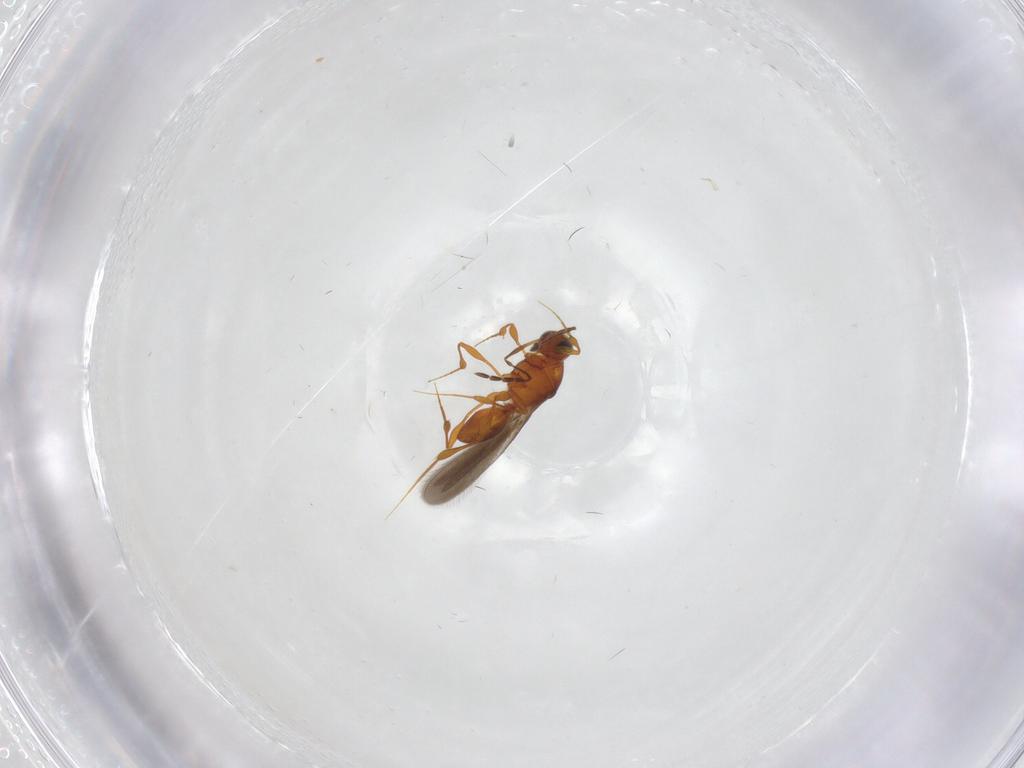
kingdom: Animalia
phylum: Arthropoda
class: Insecta
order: Hymenoptera
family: Platygastridae
